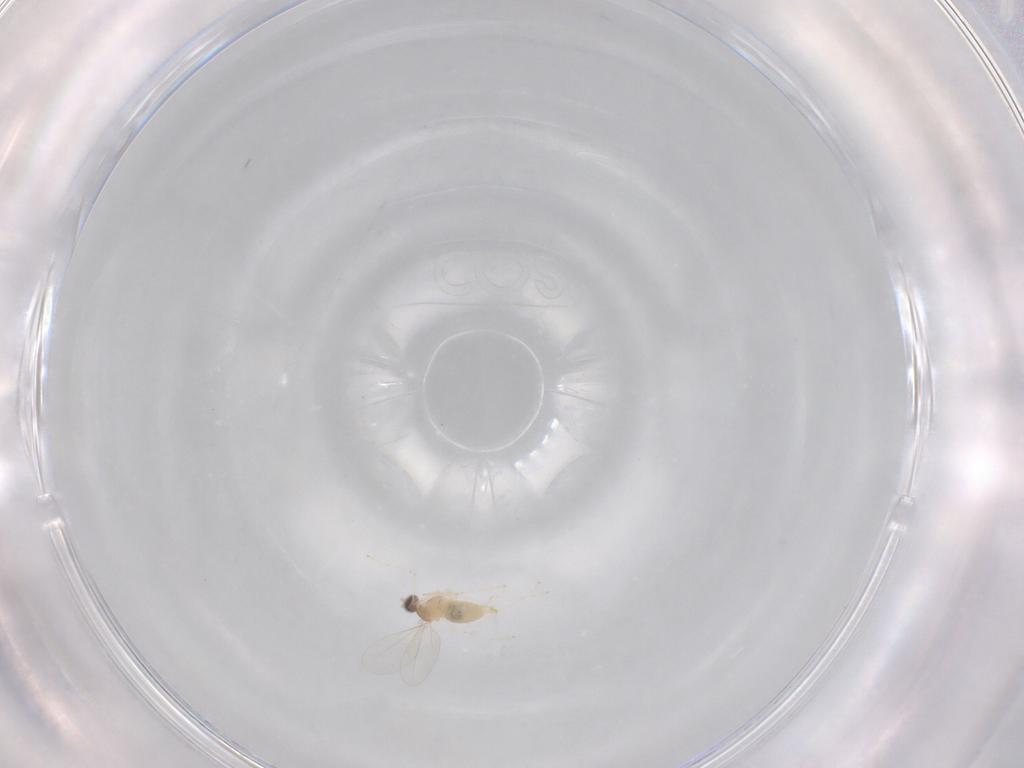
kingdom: Animalia
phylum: Arthropoda
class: Insecta
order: Diptera
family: Cecidomyiidae
